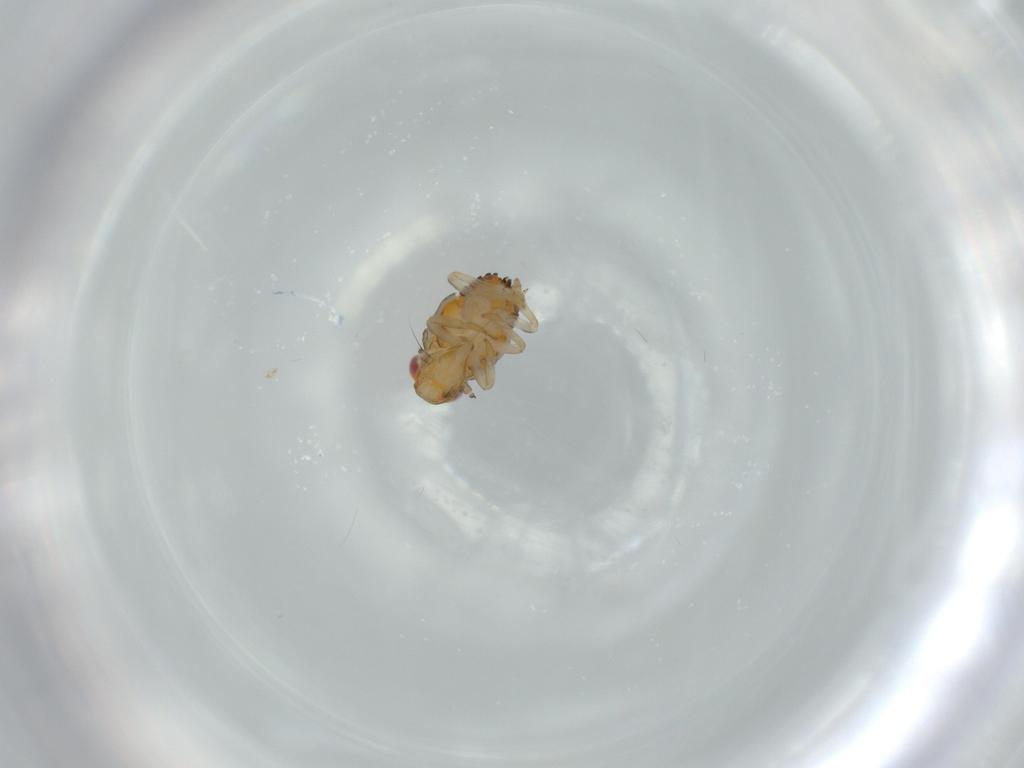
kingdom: Animalia
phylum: Arthropoda
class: Insecta
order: Hemiptera
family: Issidae
